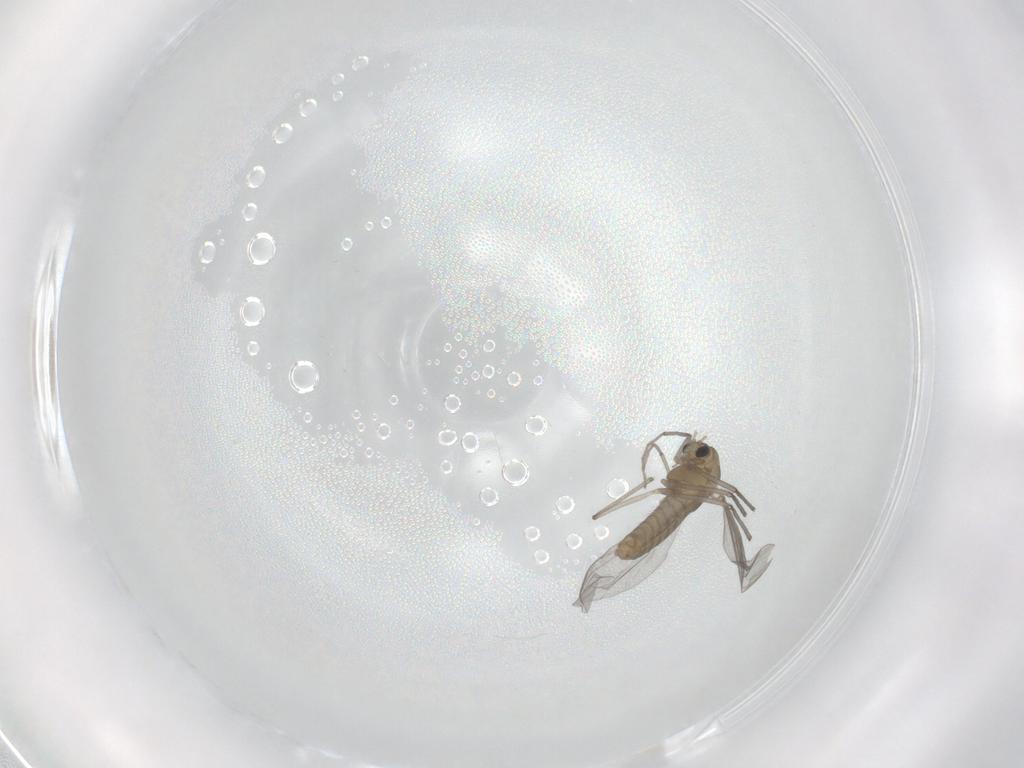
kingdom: Animalia
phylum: Arthropoda
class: Insecta
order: Diptera
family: Chironomidae
